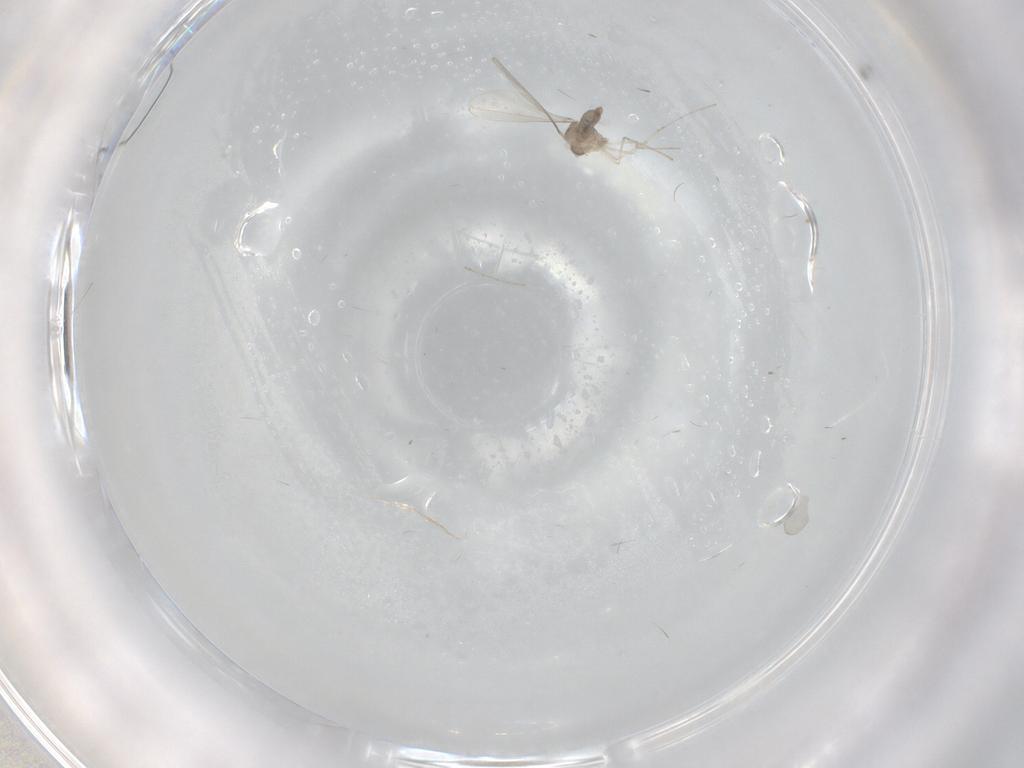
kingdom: Animalia
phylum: Arthropoda
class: Insecta
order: Diptera
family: Cecidomyiidae
